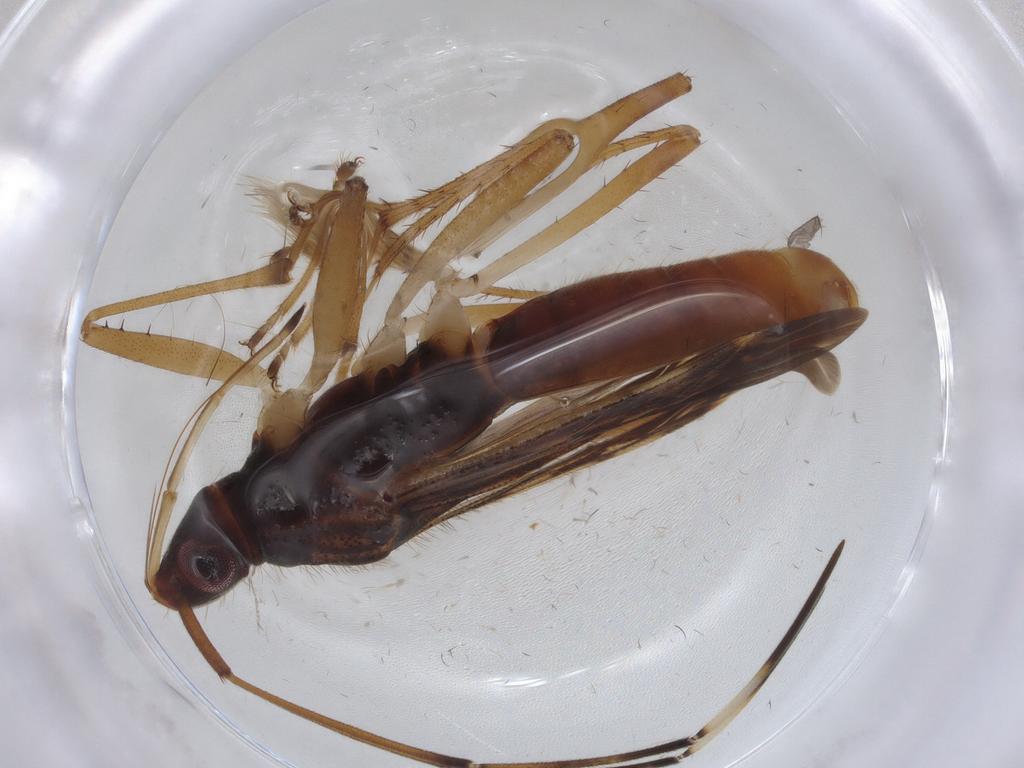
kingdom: Animalia
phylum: Arthropoda
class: Insecta
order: Hemiptera
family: Rhyparochromidae
